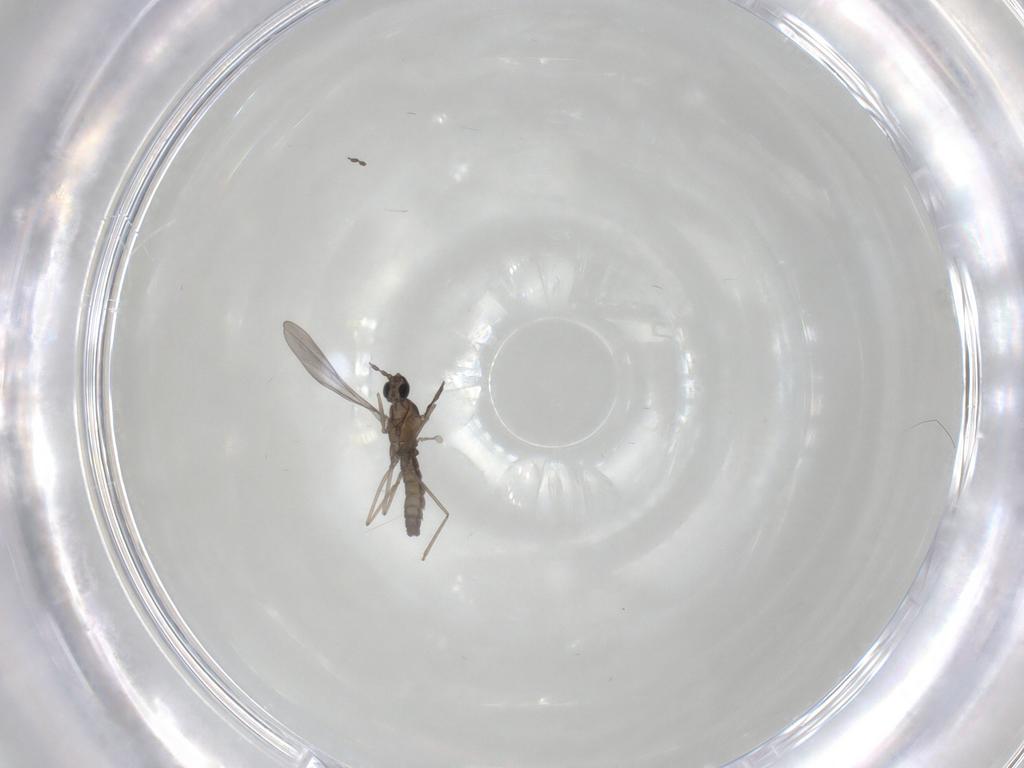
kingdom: Animalia
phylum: Arthropoda
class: Insecta
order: Diptera
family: Cecidomyiidae
